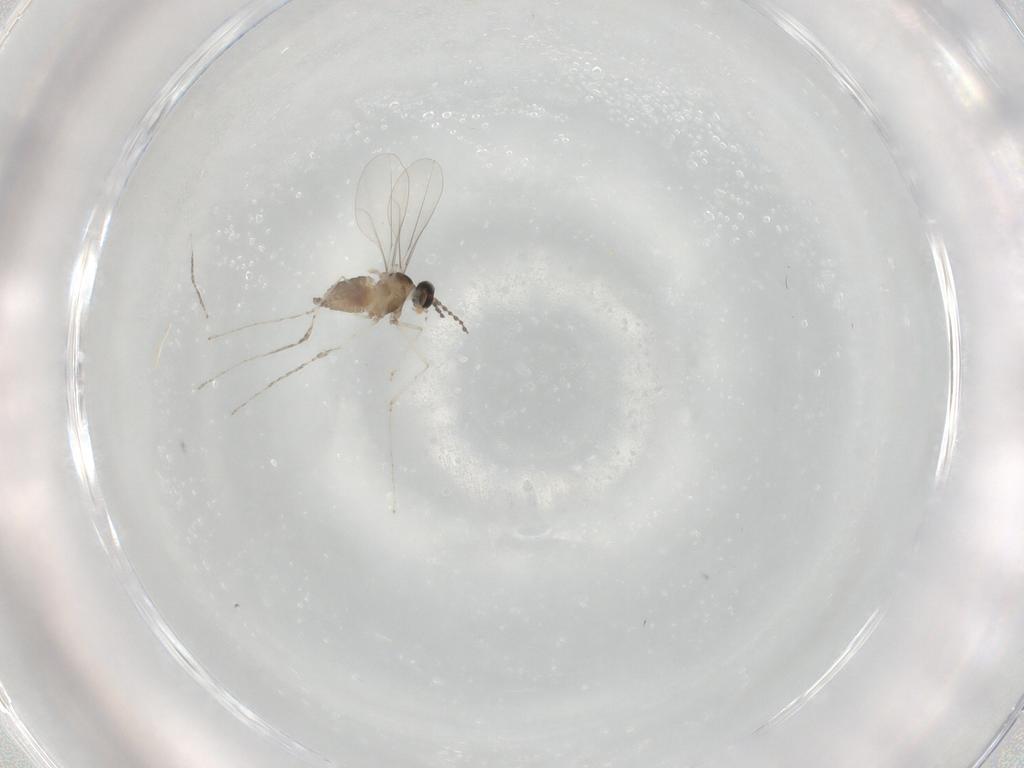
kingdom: Animalia
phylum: Arthropoda
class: Insecta
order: Diptera
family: Cecidomyiidae
